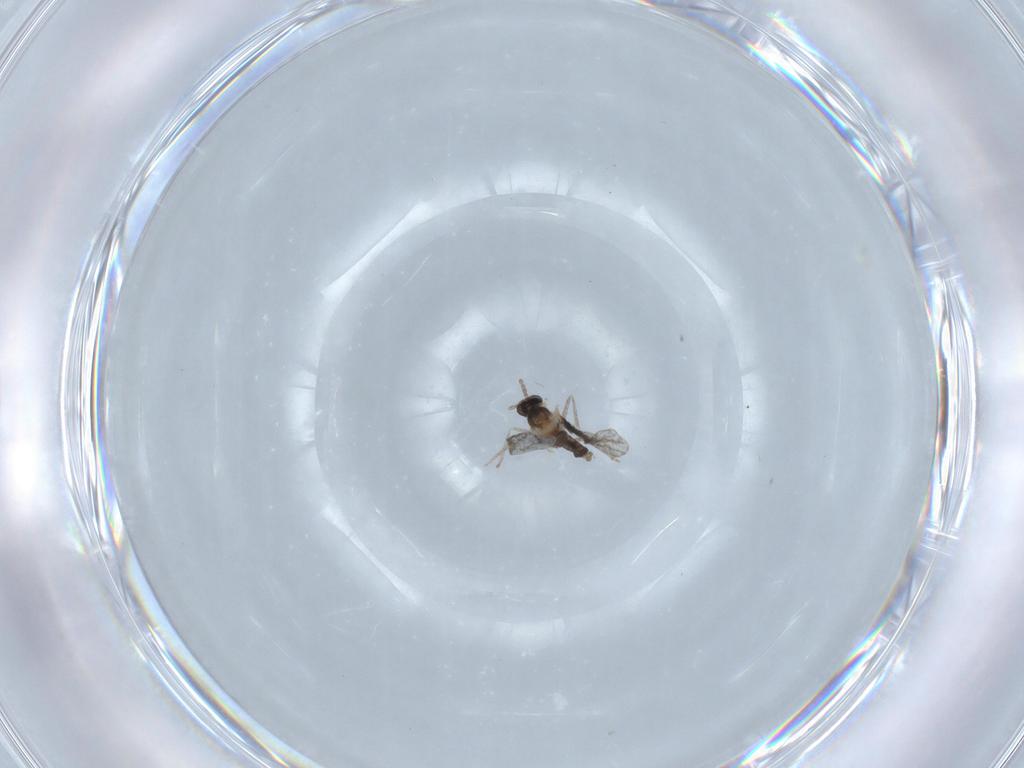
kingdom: Animalia
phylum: Arthropoda
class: Insecta
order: Diptera
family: Cecidomyiidae
